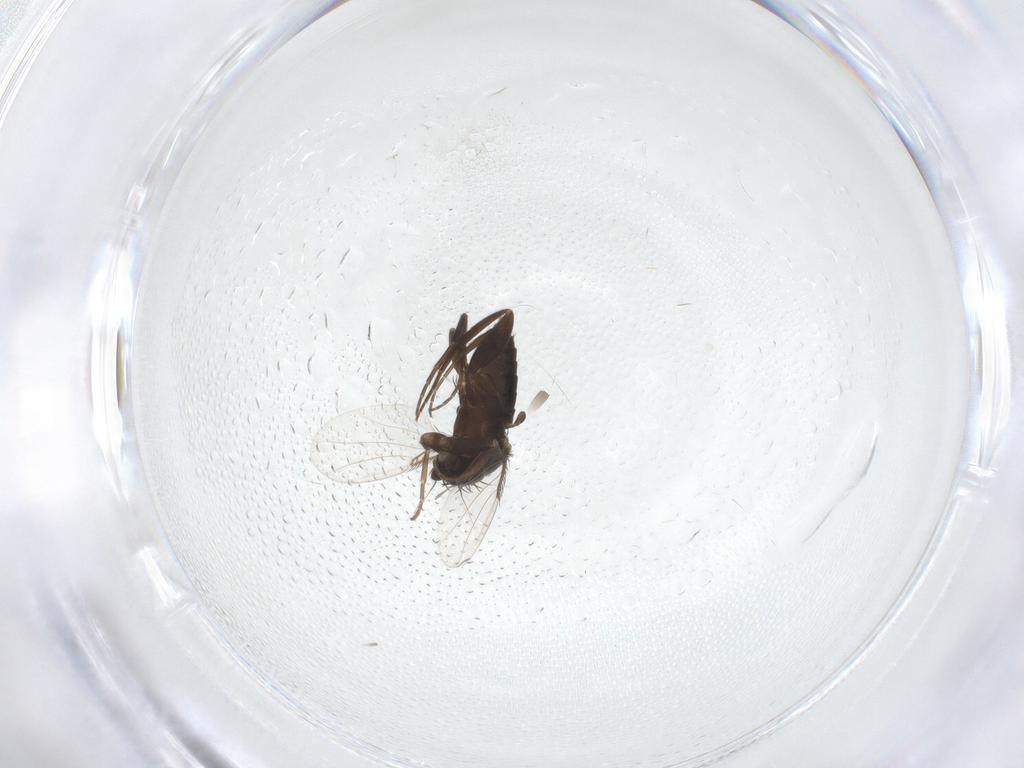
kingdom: Animalia
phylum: Arthropoda
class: Insecta
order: Diptera
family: Phoridae
